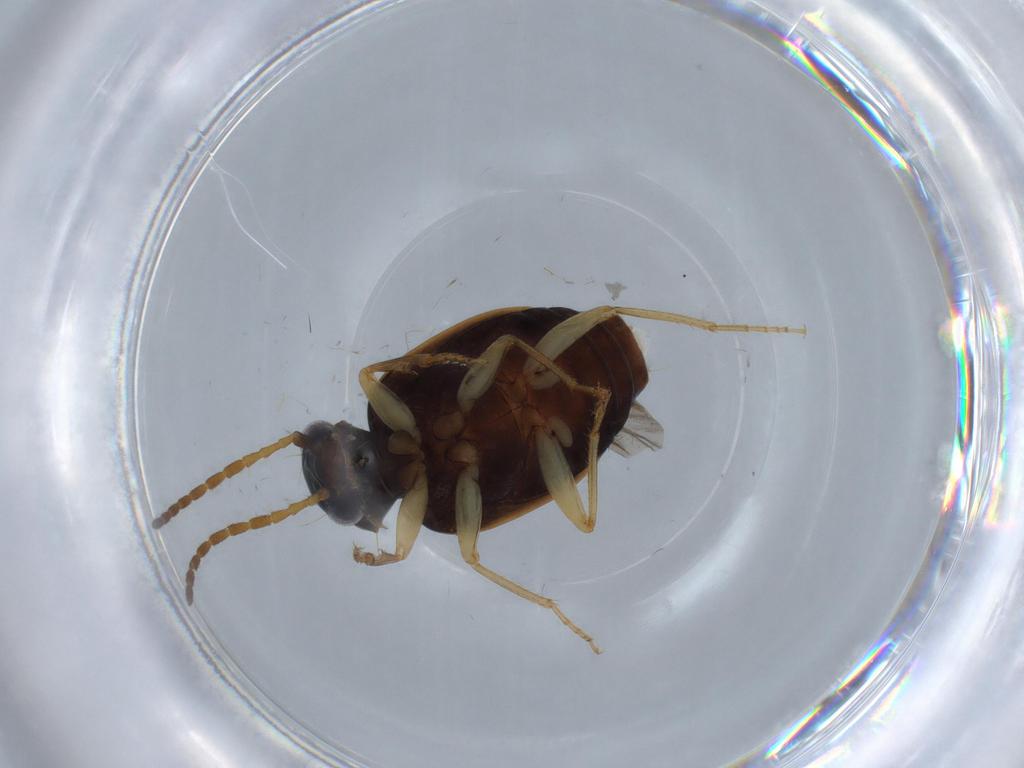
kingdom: Animalia
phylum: Arthropoda
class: Insecta
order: Coleoptera
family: Carabidae
